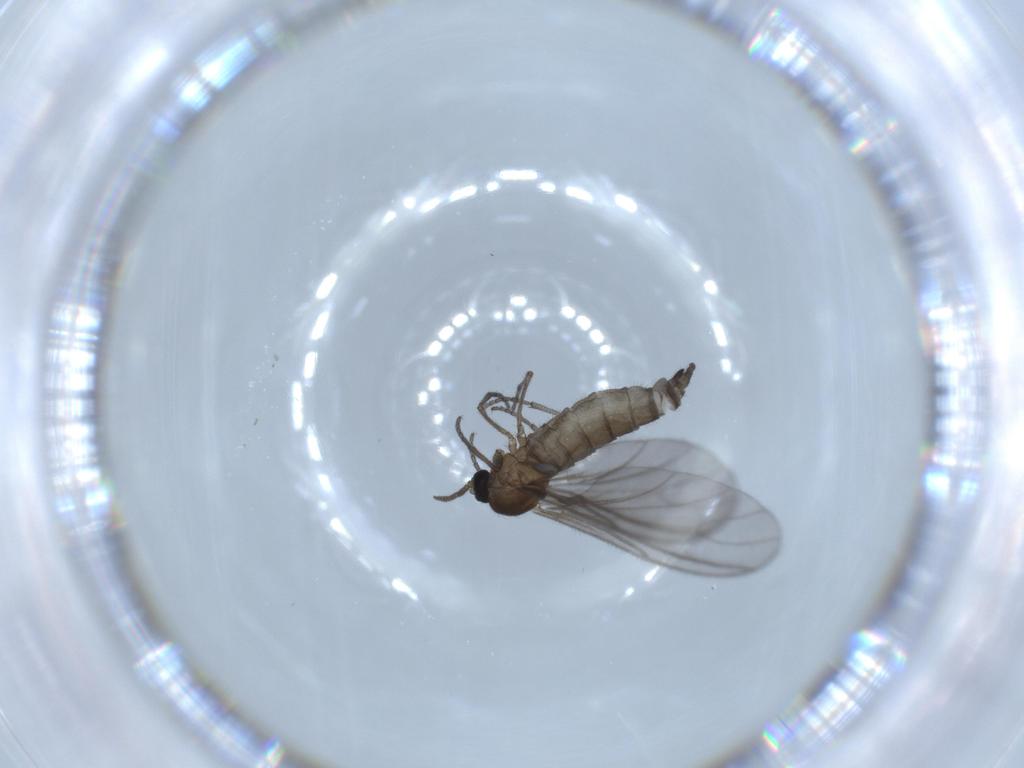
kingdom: Animalia
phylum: Arthropoda
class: Insecta
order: Diptera
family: Sciaridae
